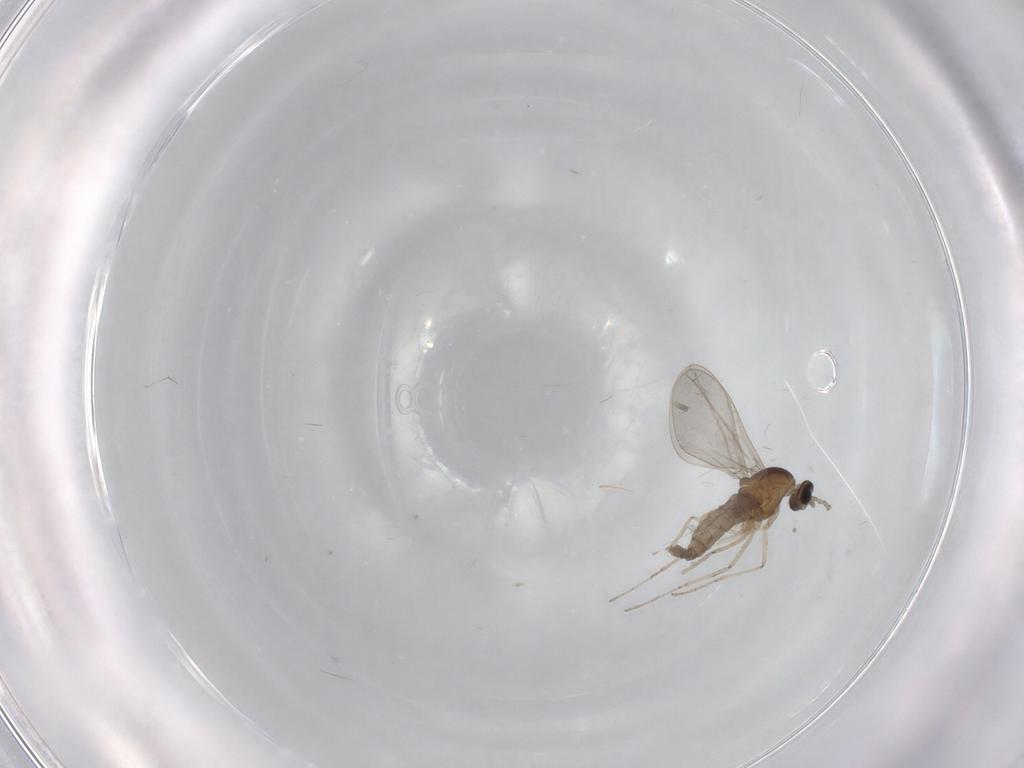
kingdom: Animalia
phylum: Arthropoda
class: Insecta
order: Diptera
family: Cecidomyiidae
